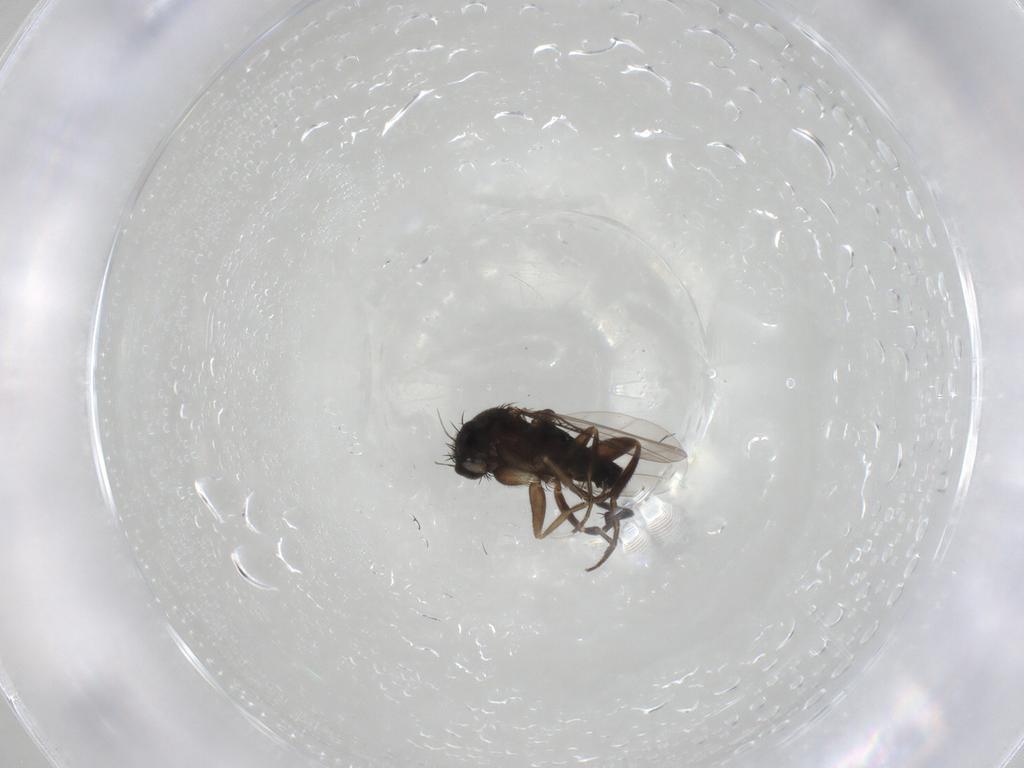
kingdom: Animalia
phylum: Arthropoda
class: Insecta
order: Diptera
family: Phoridae
